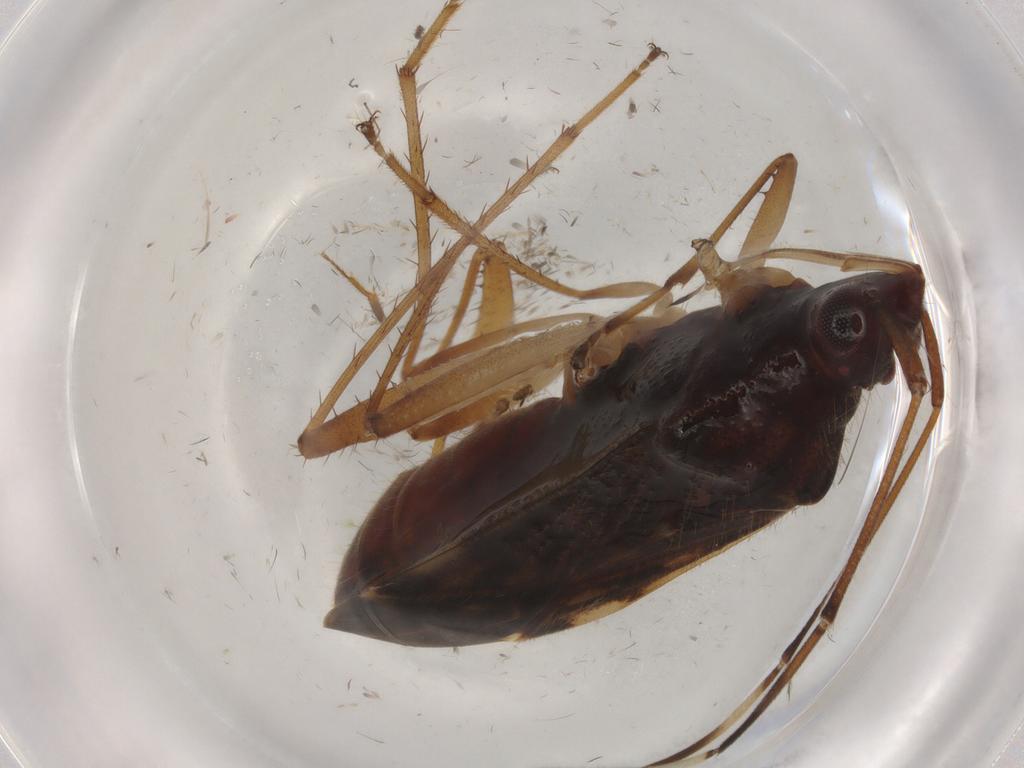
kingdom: Animalia
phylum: Arthropoda
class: Insecta
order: Hemiptera
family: Rhyparochromidae
